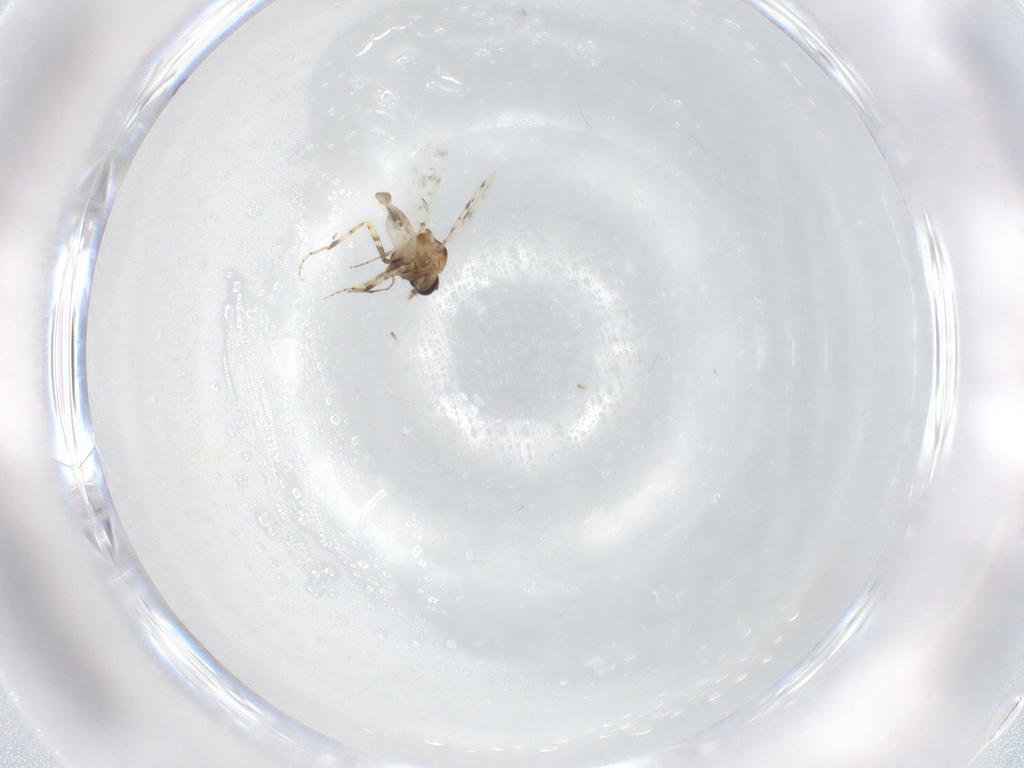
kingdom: Animalia
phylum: Arthropoda
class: Insecta
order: Diptera
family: Ceratopogonidae
